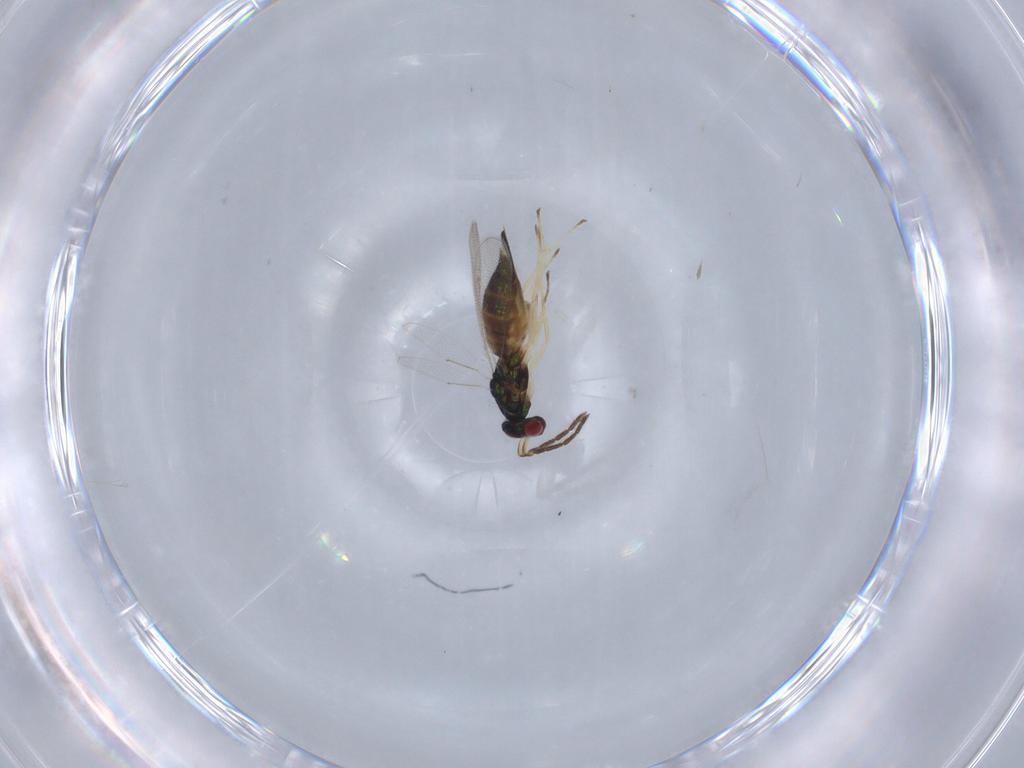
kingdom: Animalia
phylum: Arthropoda
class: Insecta
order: Hymenoptera
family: Eulophidae
